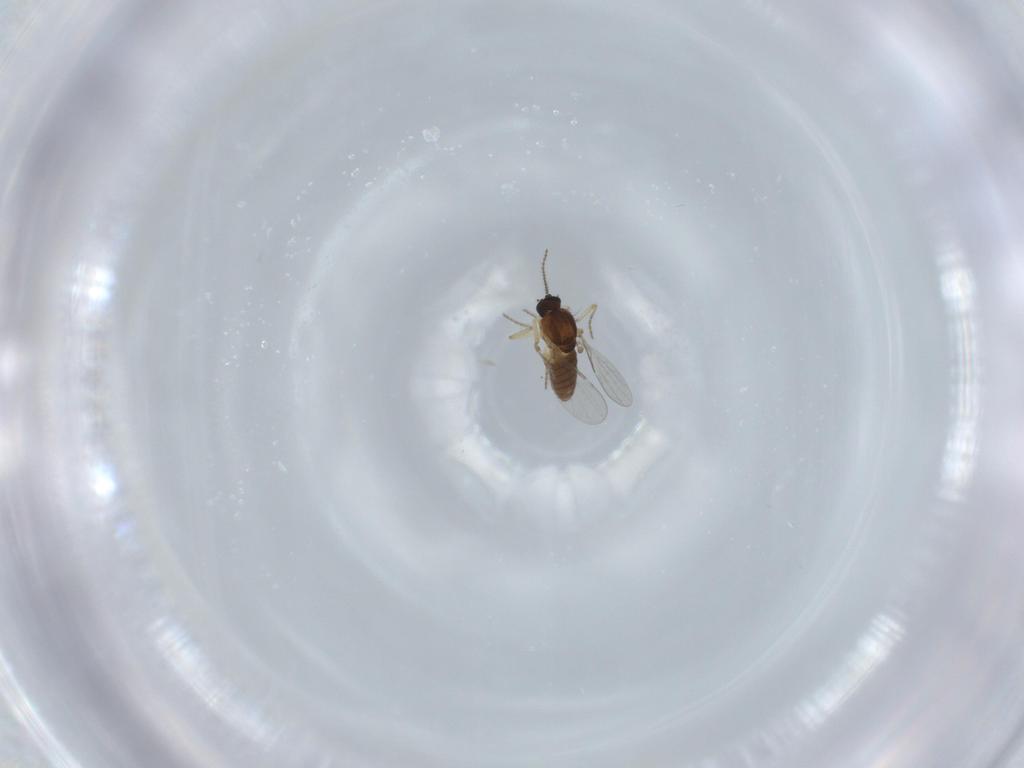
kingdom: Animalia
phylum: Arthropoda
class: Insecta
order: Diptera
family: Ceratopogonidae
